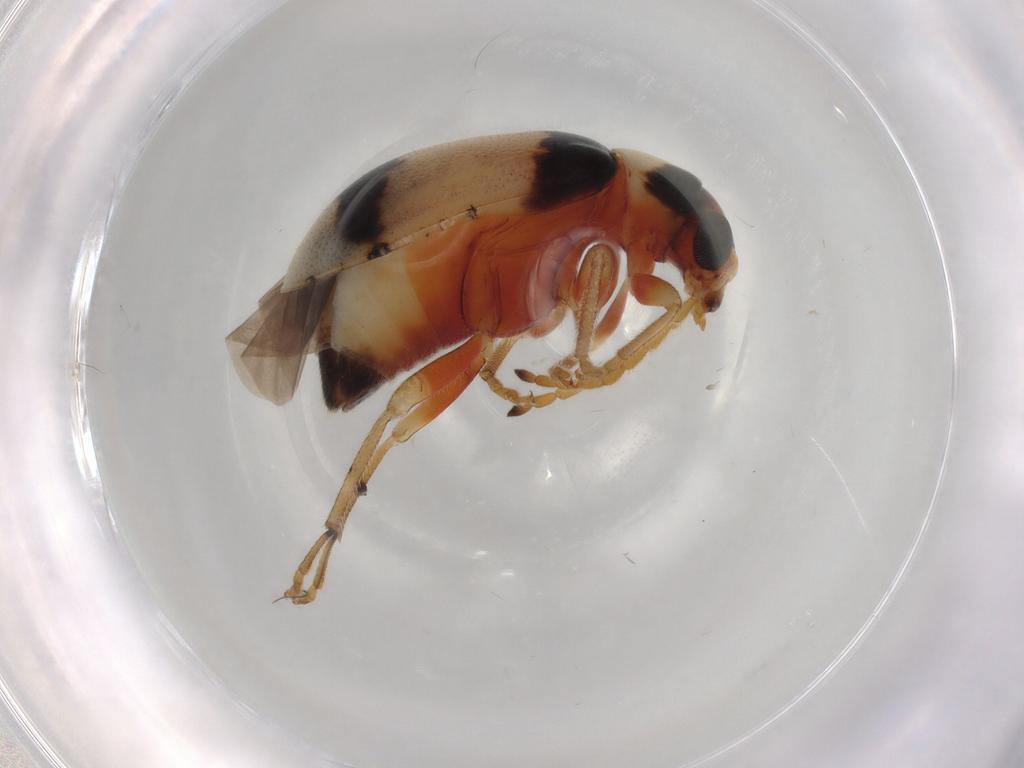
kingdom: Animalia
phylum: Arthropoda
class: Insecta
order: Coleoptera
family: Chrysomelidae
